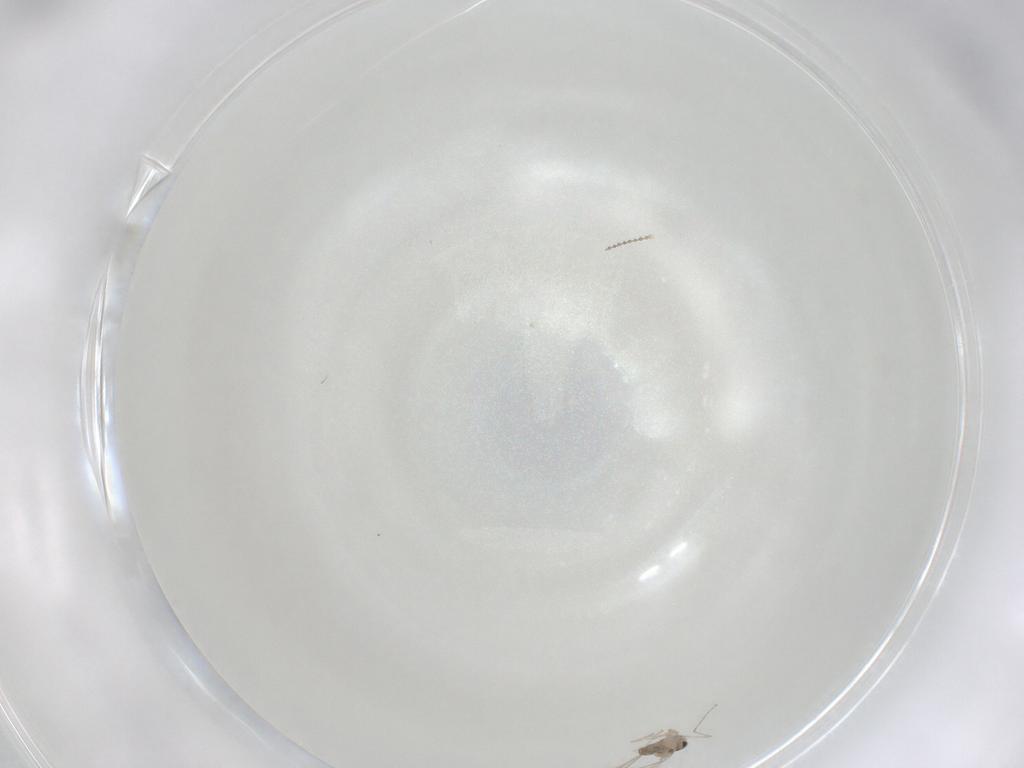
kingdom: Animalia
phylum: Arthropoda
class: Insecta
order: Diptera
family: Cecidomyiidae
